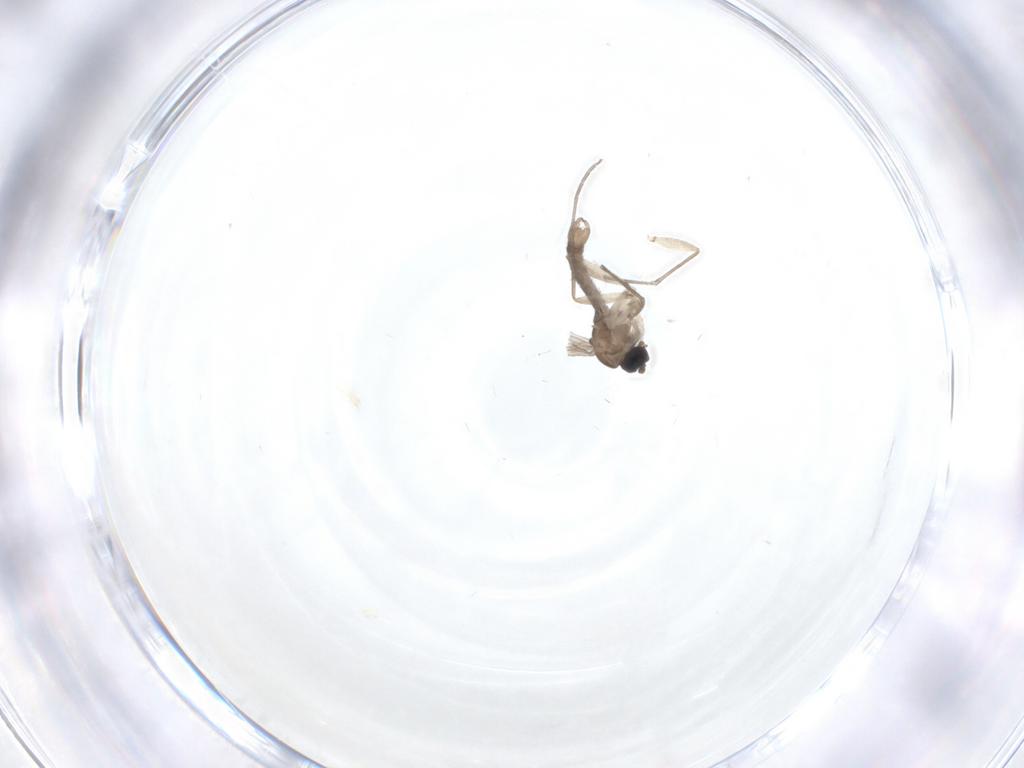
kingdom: Animalia
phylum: Arthropoda
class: Insecta
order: Diptera
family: Sciaridae
